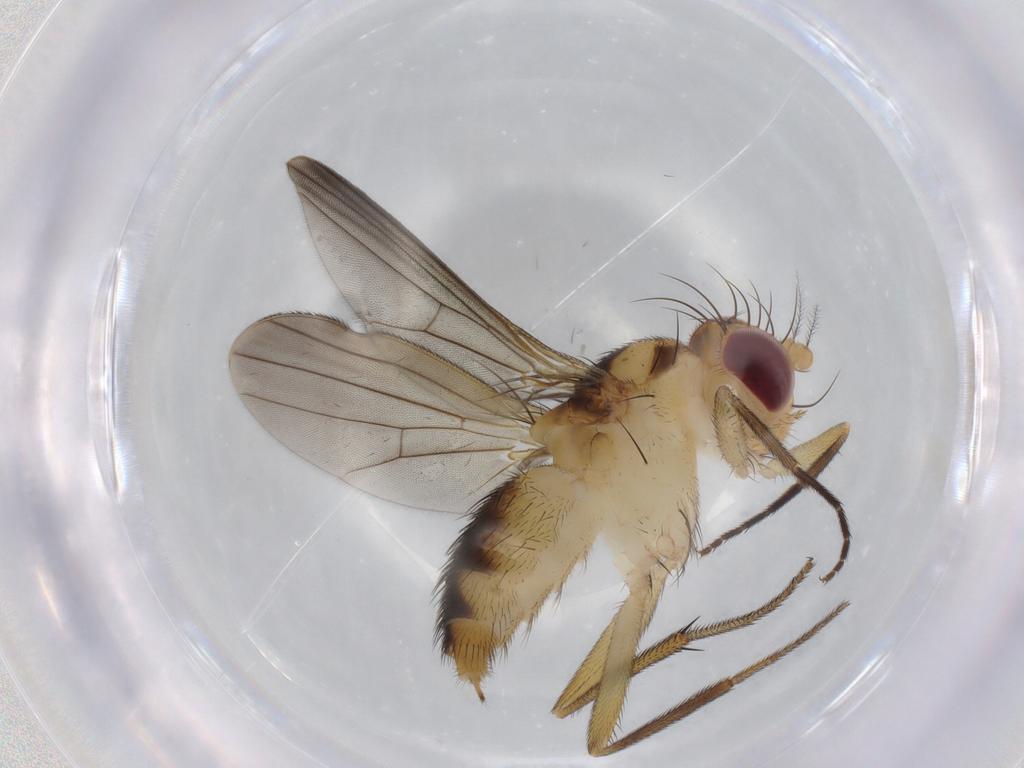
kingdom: Animalia
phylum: Arthropoda
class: Insecta
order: Diptera
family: Clusiidae
